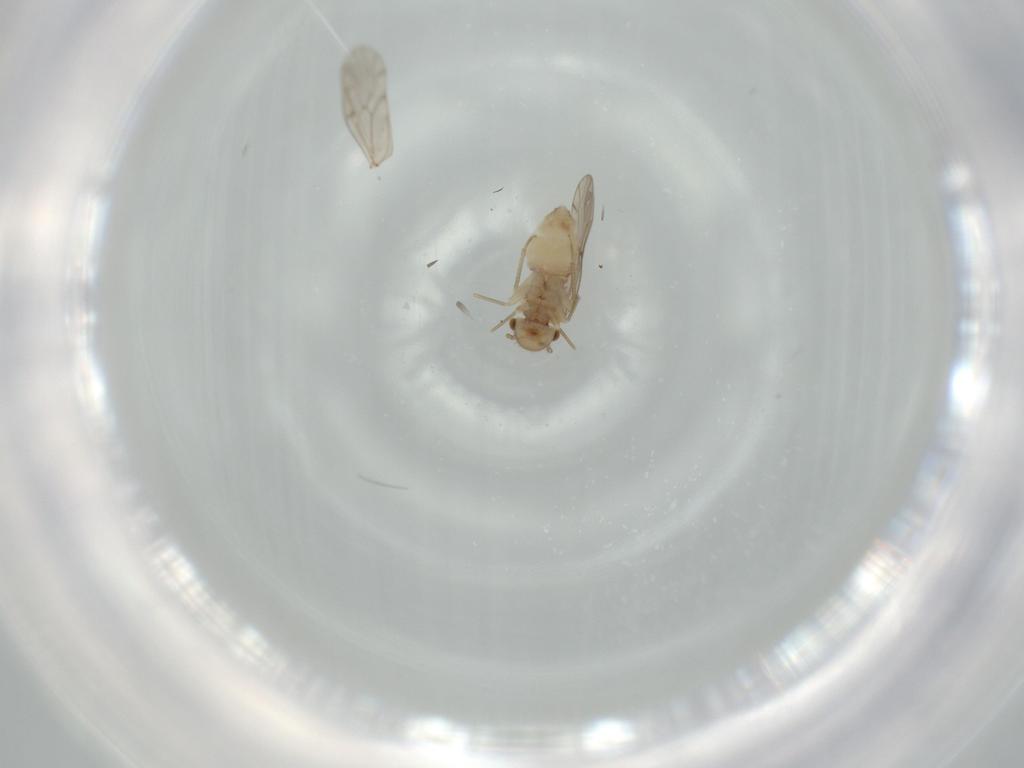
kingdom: Animalia
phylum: Arthropoda
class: Insecta
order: Psocodea
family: Ectopsocidae
